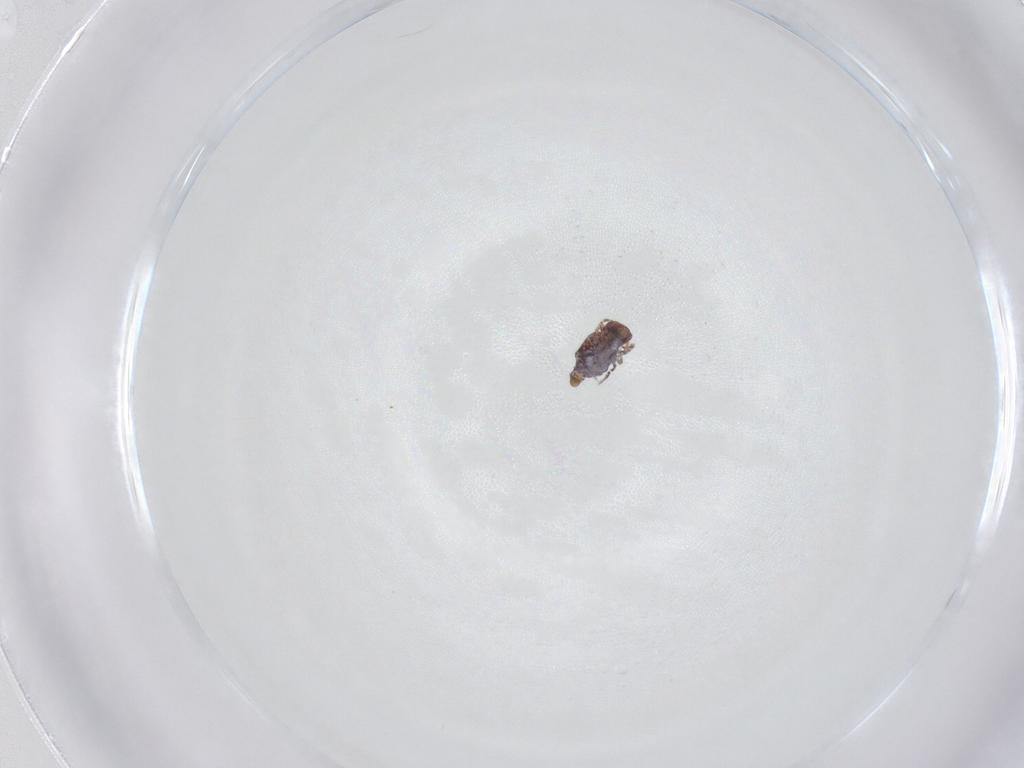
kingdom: Animalia
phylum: Arthropoda
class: Collembola
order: Symphypleona
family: Bourletiellidae
